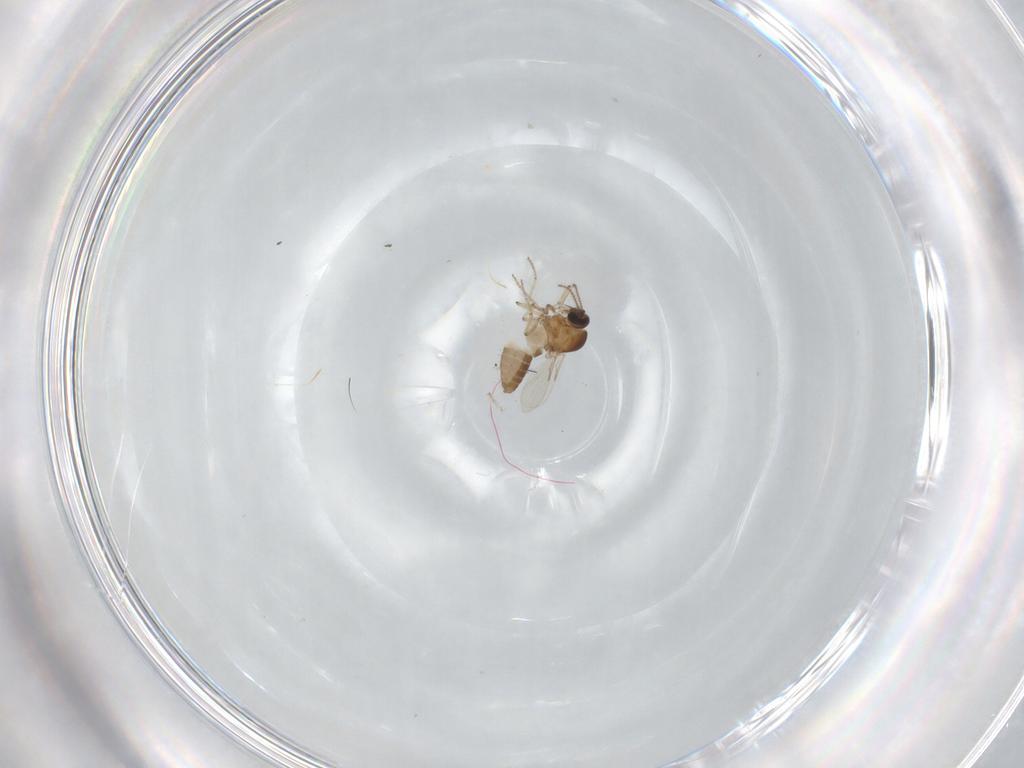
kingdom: Animalia
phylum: Arthropoda
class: Insecta
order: Diptera
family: Ceratopogonidae
